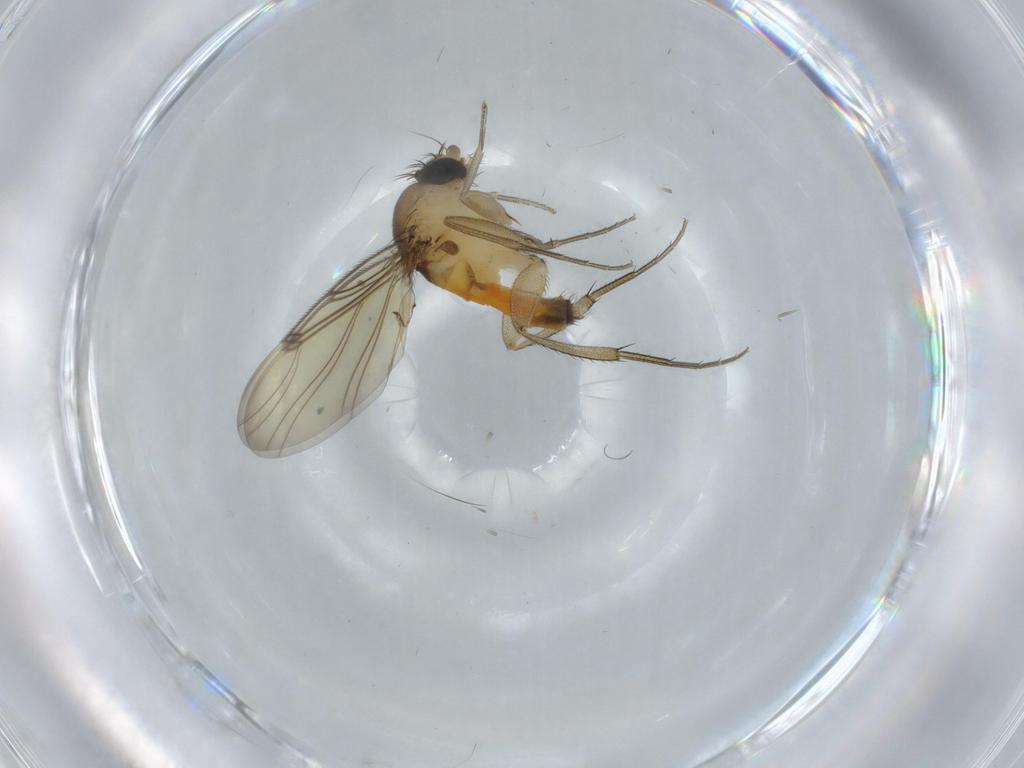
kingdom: Animalia
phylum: Arthropoda
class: Insecta
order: Diptera
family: Phoridae
